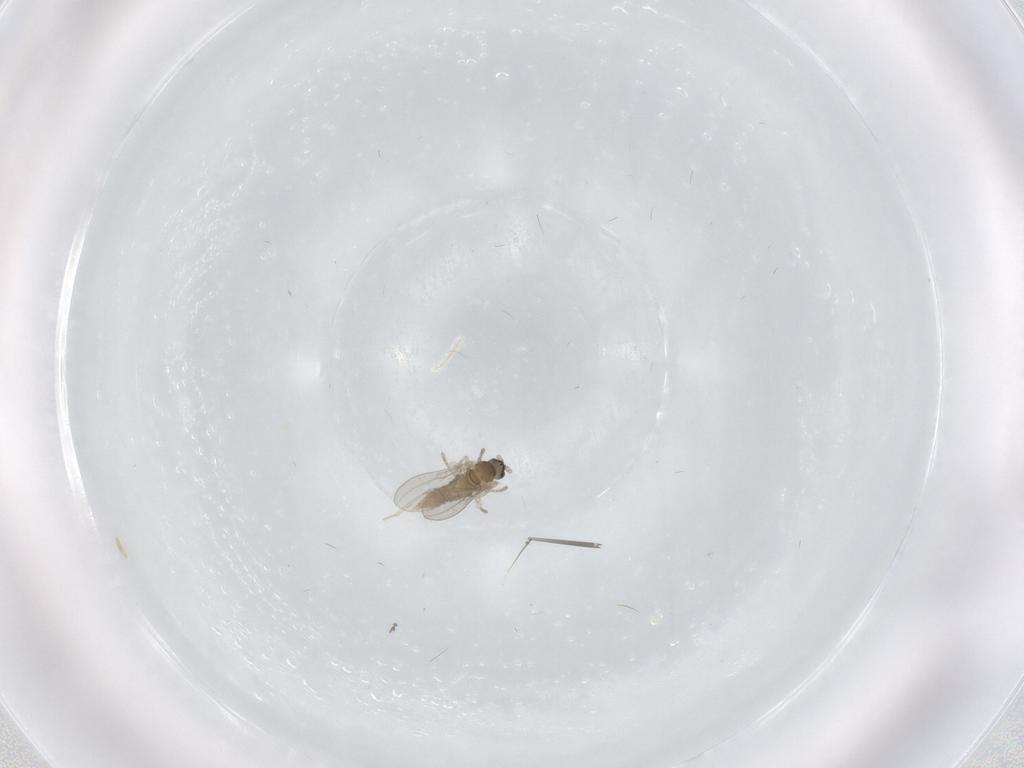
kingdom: Animalia
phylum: Arthropoda
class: Insecta
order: Diptera
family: Cecidomyiidae
